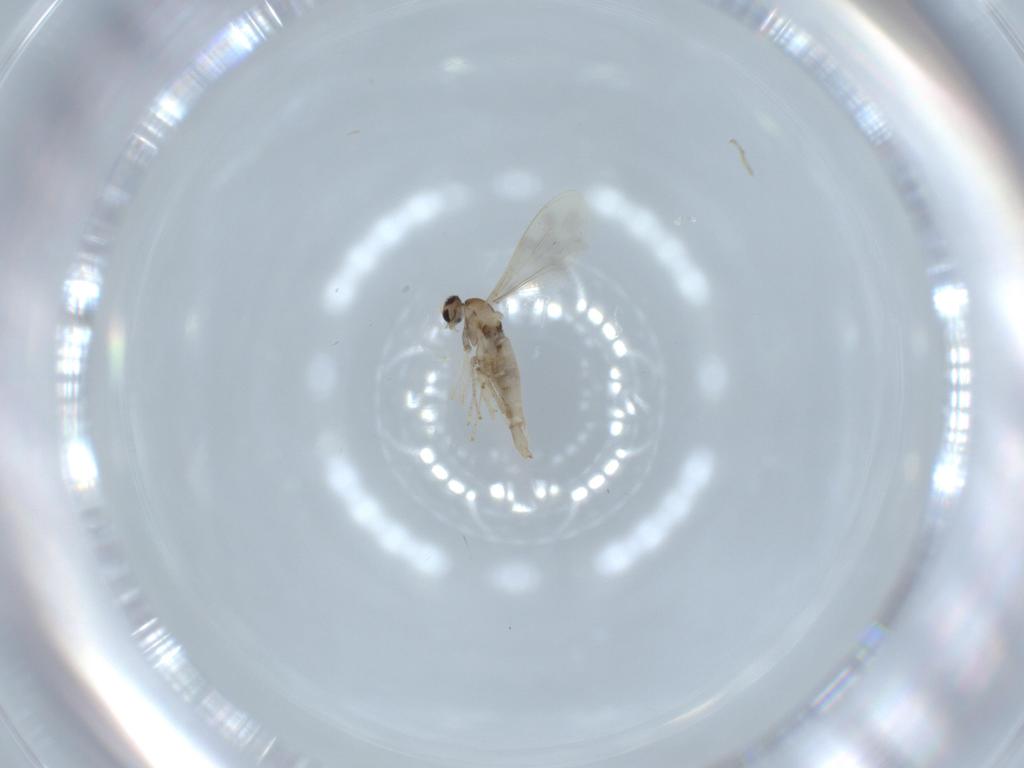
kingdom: Animalia
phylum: Arthropoda
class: Insecta
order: Diptera
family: Cecidomyiidae
